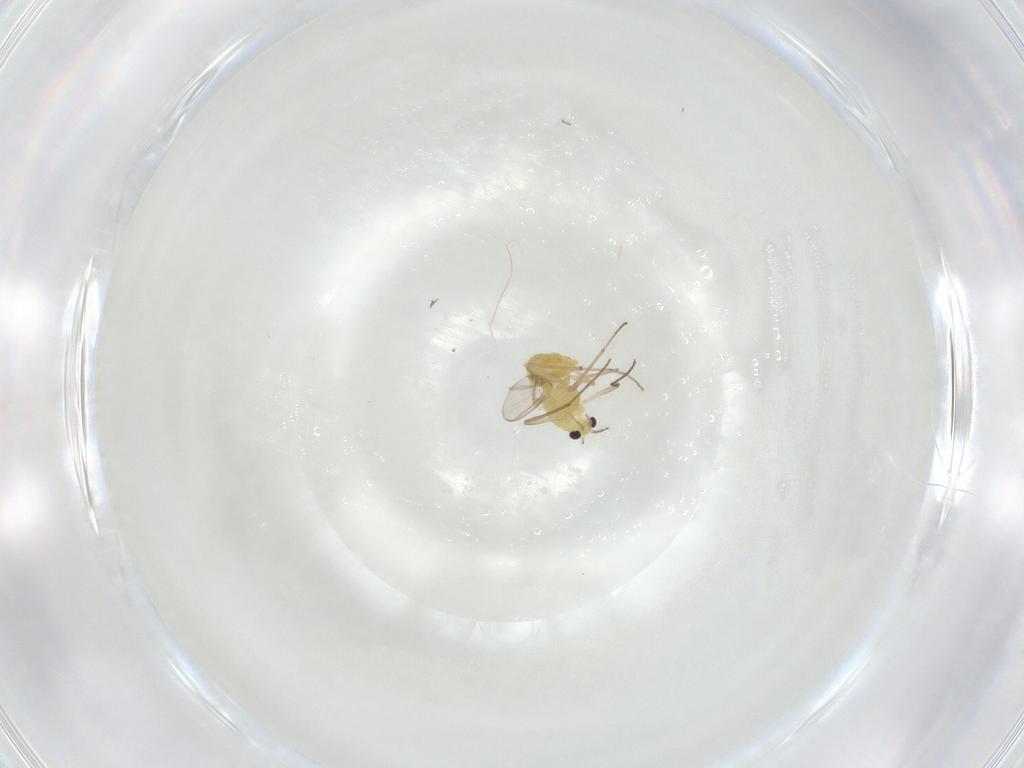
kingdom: Animalia
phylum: Arthropoda
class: Insecta
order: Diptera
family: Chironomidae
